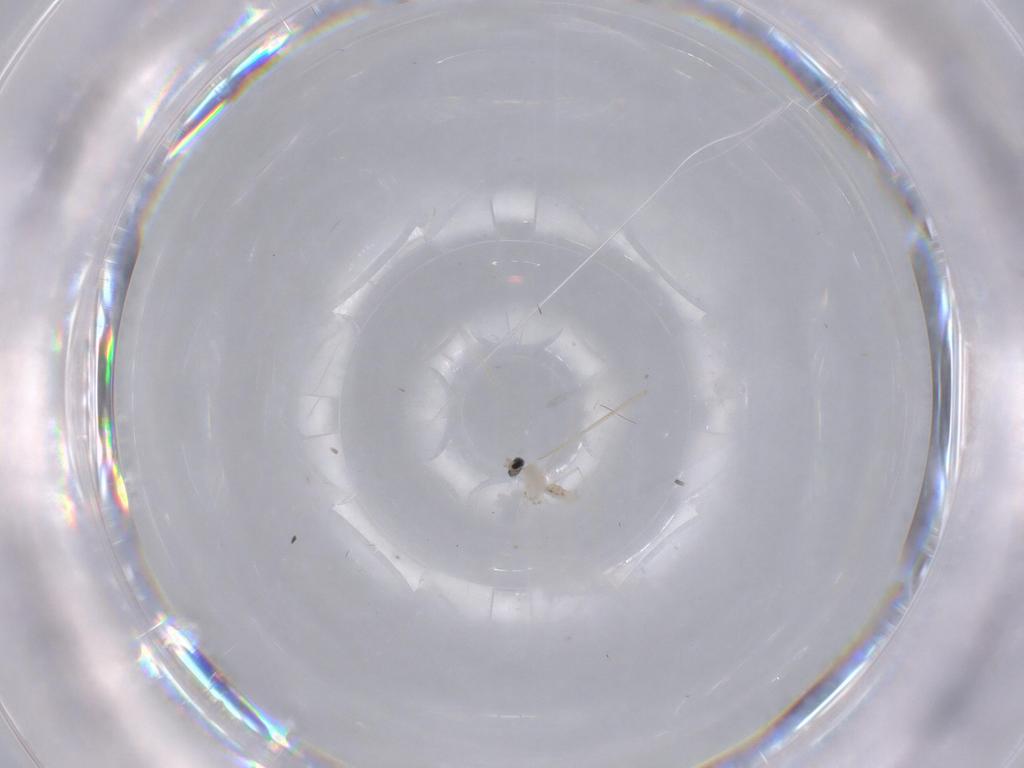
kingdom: Animalia
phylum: Arthropoda
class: Insecta
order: Diptera
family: Cecidomyiidae
